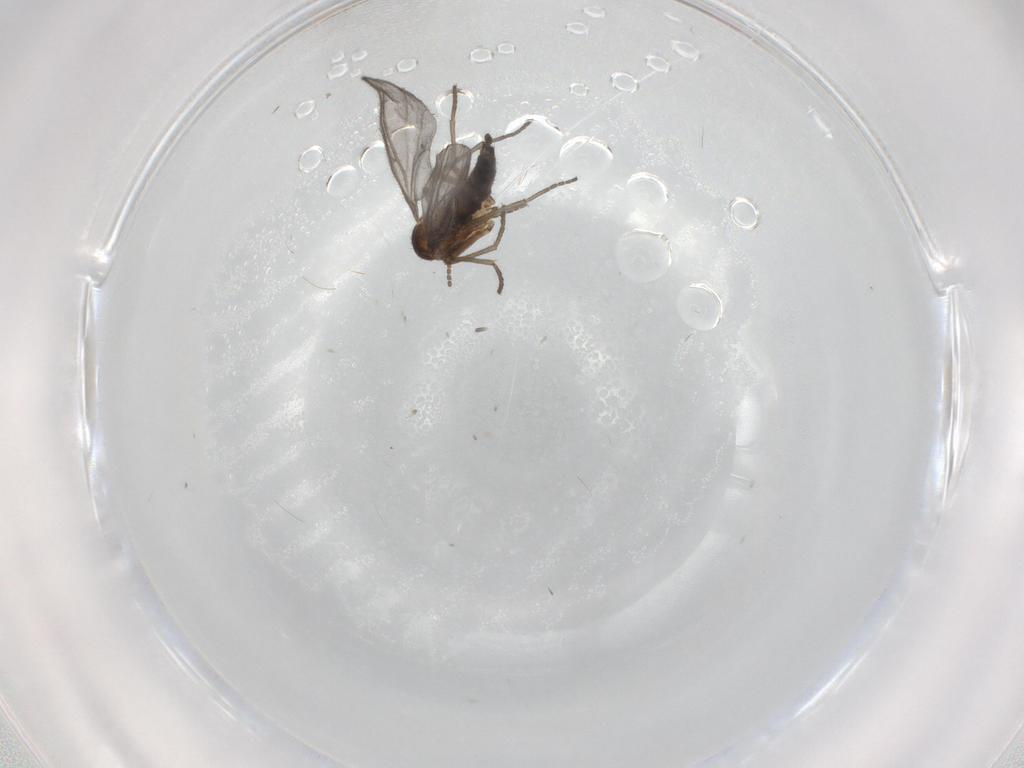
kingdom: Animalia
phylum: Arthropoda
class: Insecta
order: Diptera
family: Sciaridae
